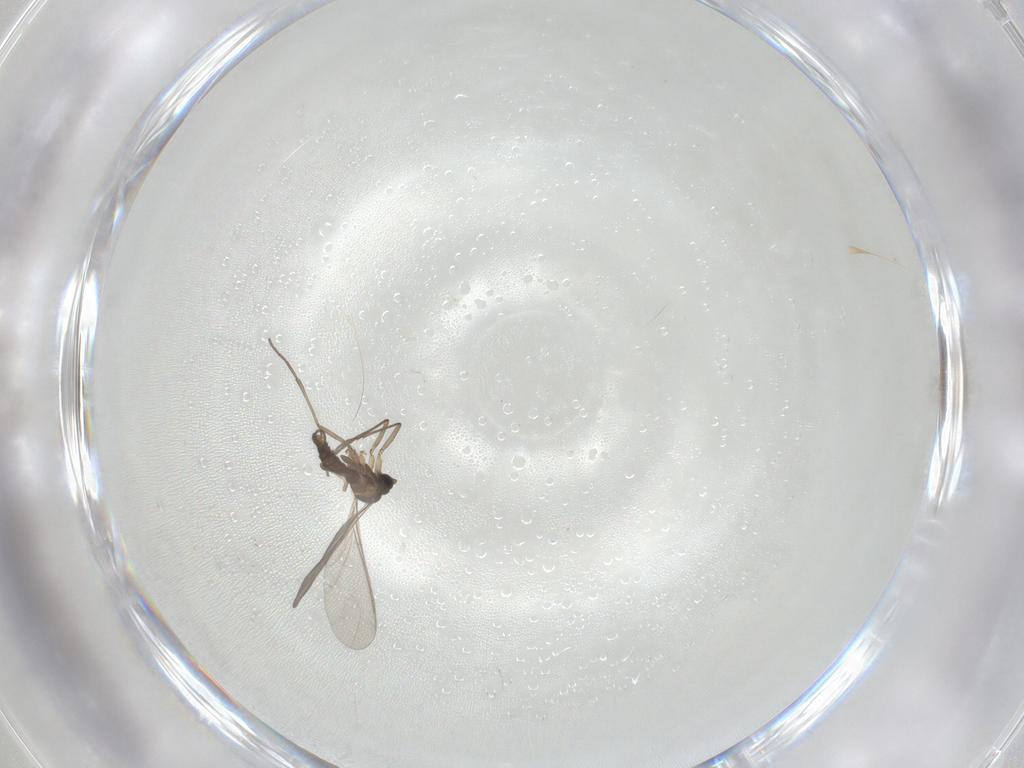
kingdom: Animalia
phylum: Arthropoda
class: Insecta
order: Diptera
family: Sciaridae
